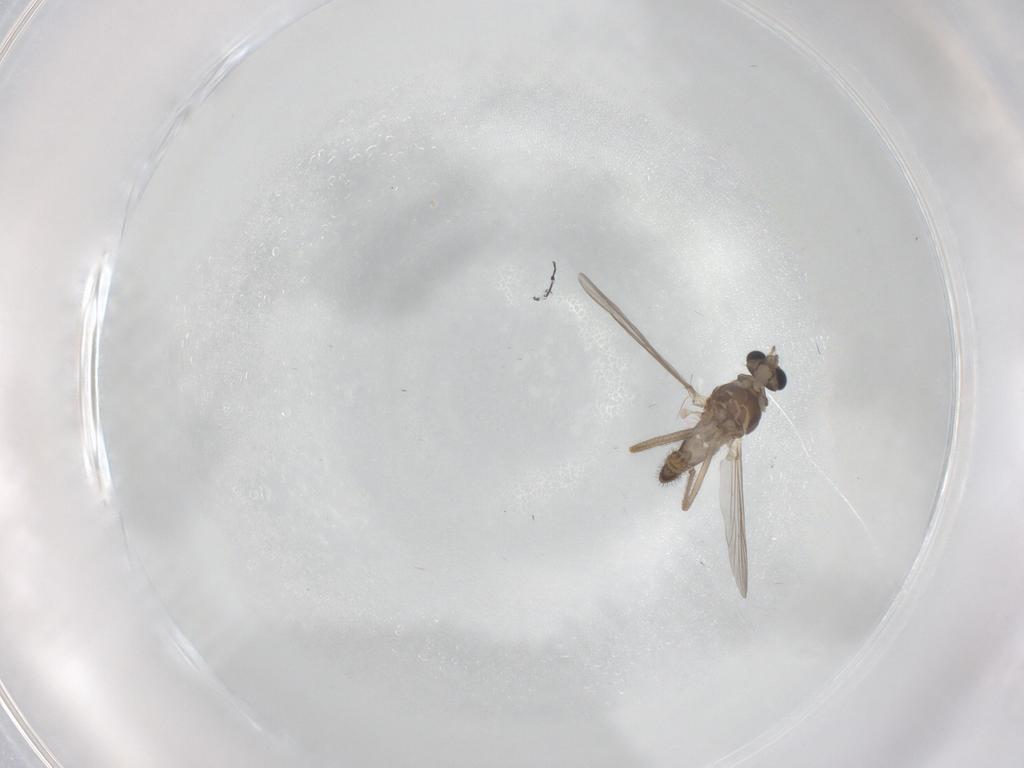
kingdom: Animalia
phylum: Arthropoda
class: Insecta
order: Diptera
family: Chironomidae
